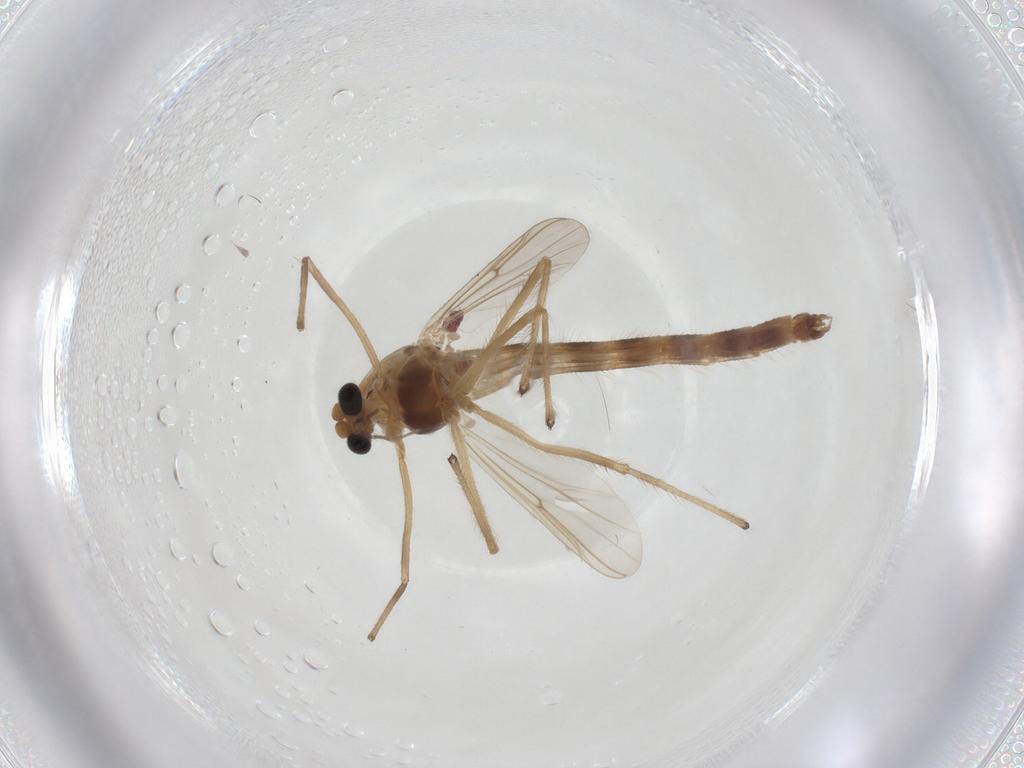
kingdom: Animalia
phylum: Arthropoda
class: Insecta
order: Diptera
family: Chironomidae
